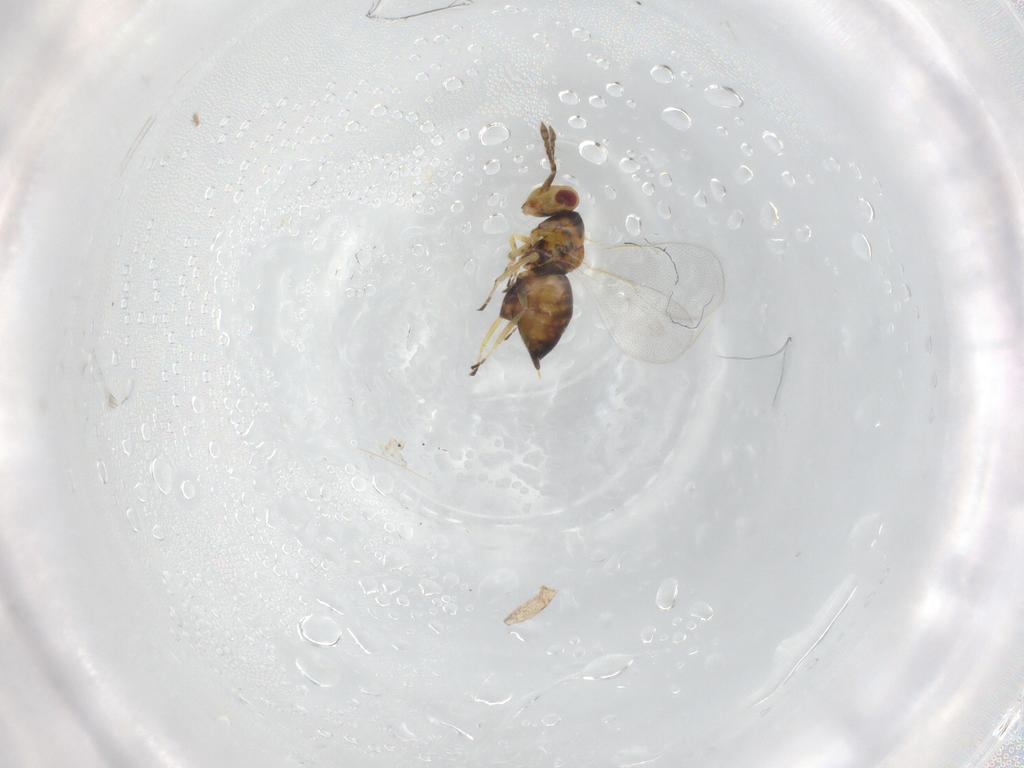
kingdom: Animalia
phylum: Arthropoda
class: Insecta
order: Hymenoptera
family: Eulophidae
